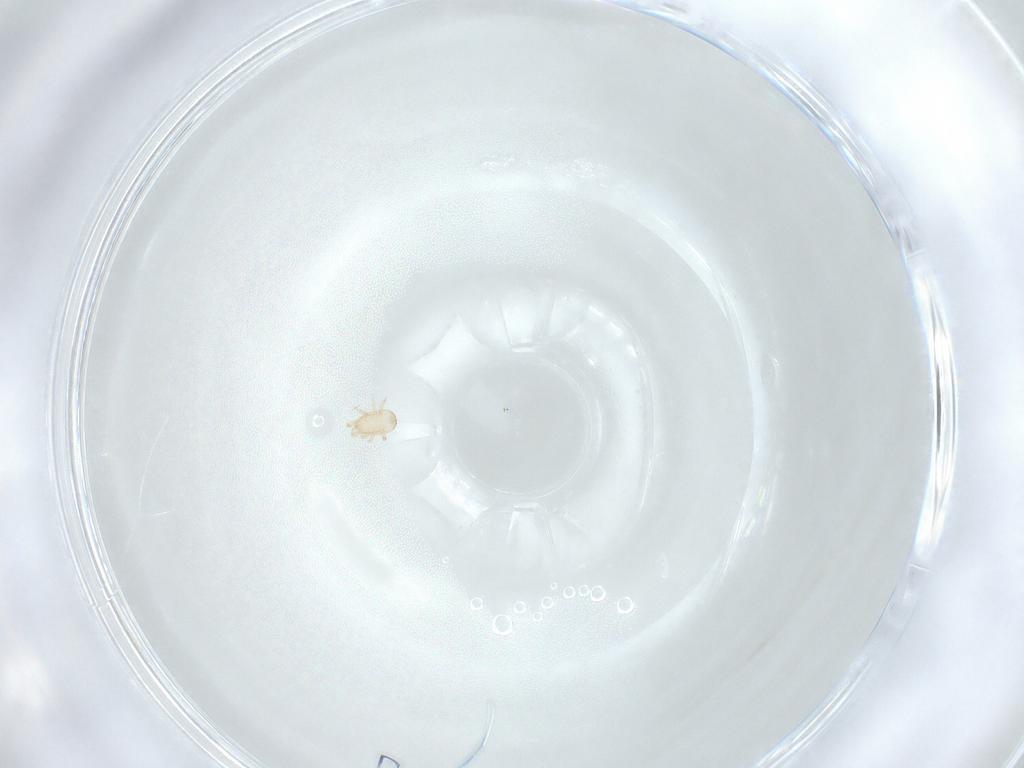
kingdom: Animalia
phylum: Arthropoda
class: Arachnida
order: Mesostigmata
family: Ascidae
